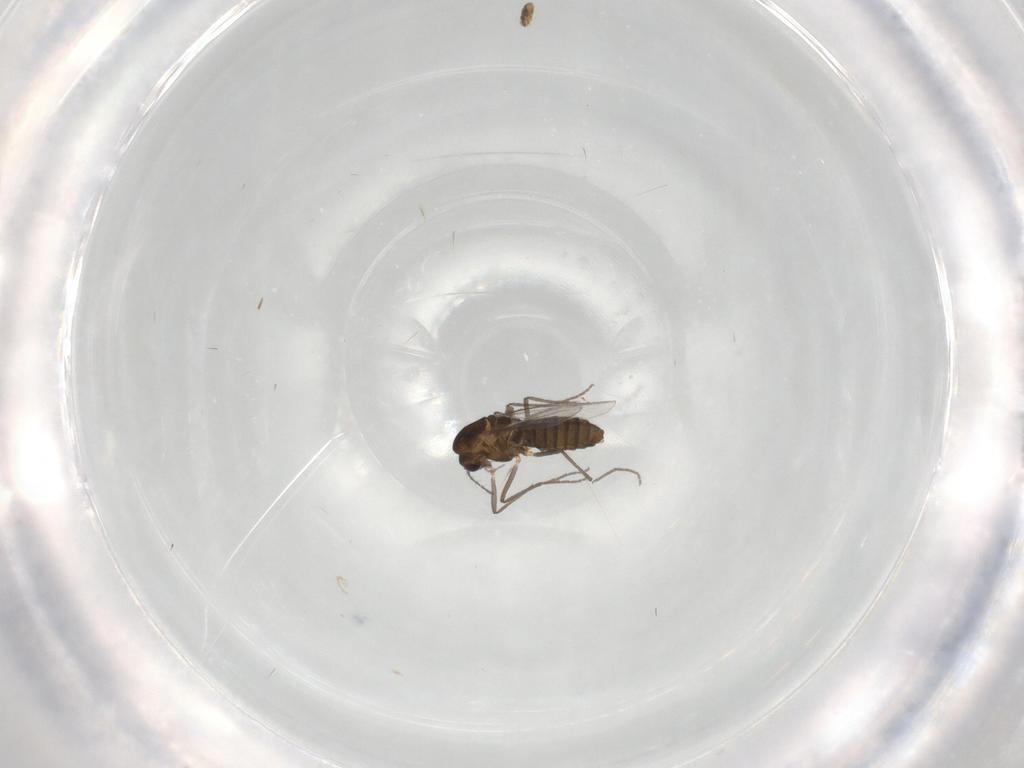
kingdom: Animalia
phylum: Arthropoda
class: Insecta
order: Diptera
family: Chironomidae
